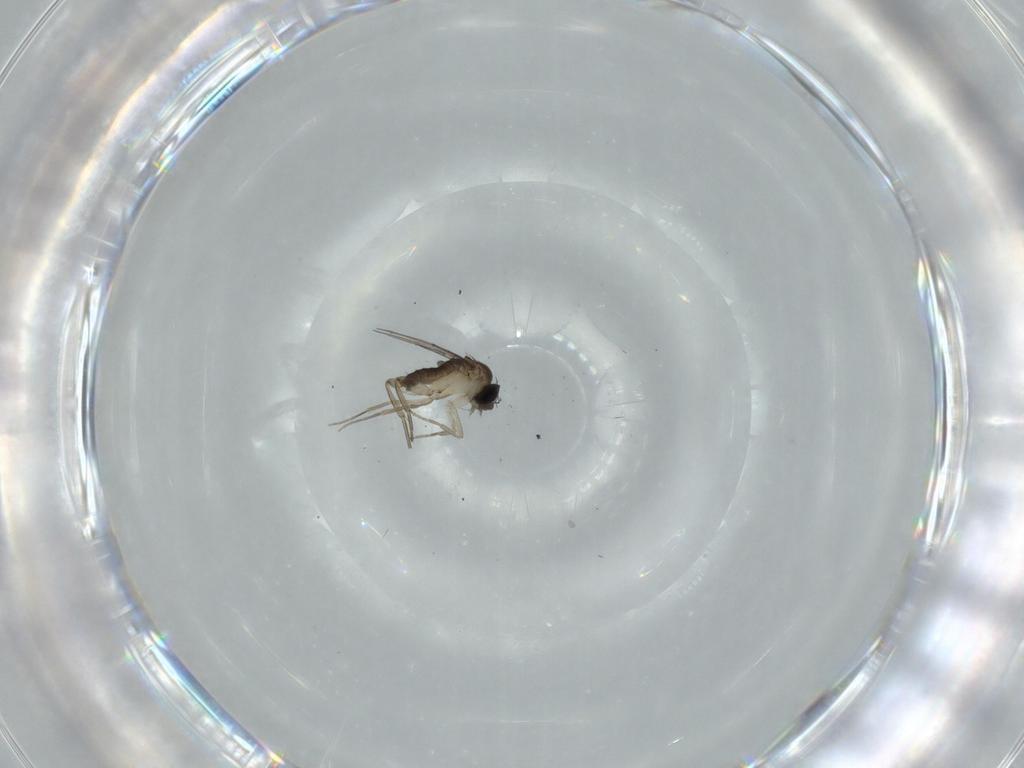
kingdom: Animalia
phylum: Arthropoda
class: Insecta
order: Diptera
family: Phoridae
